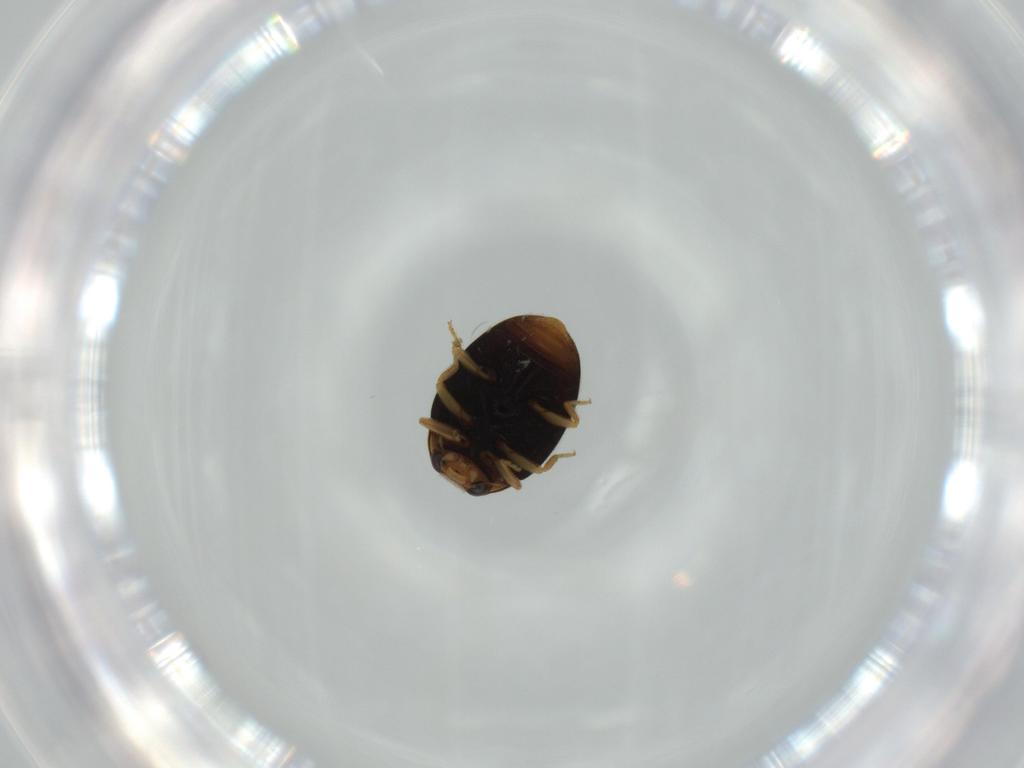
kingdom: Animalia
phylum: Arthropoda
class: Insecta
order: Coleoptera
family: Coccinellidae
